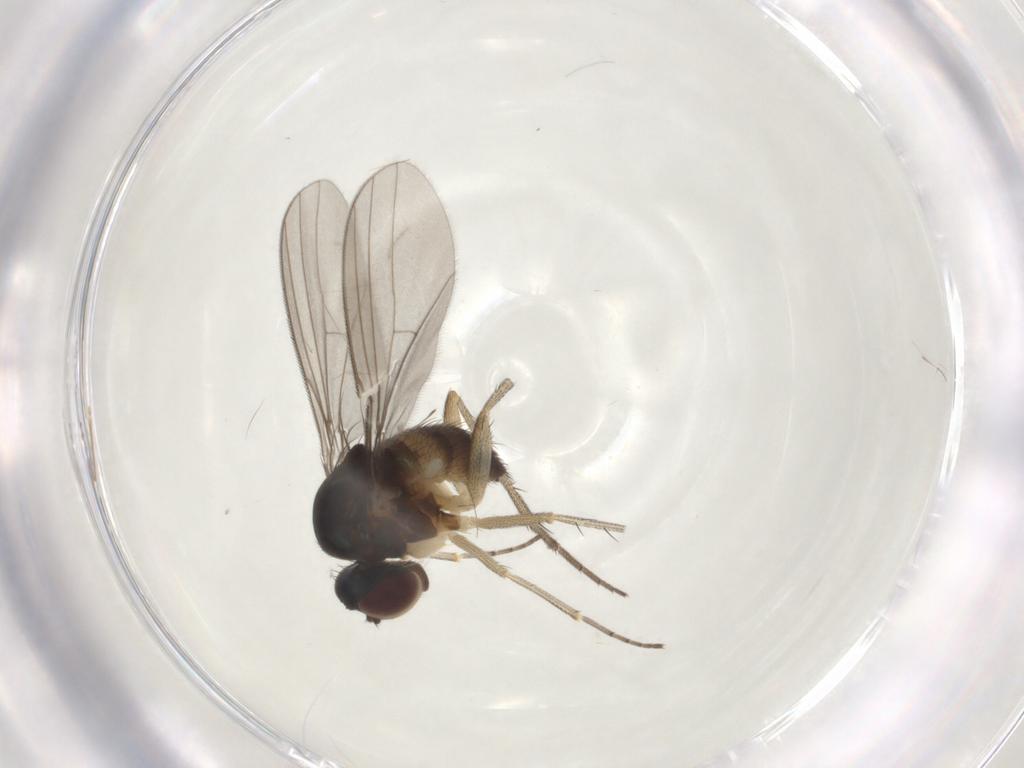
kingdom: Animalia
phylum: Arthropoda
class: Insecta
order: Diptera
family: Dolichopodidae
